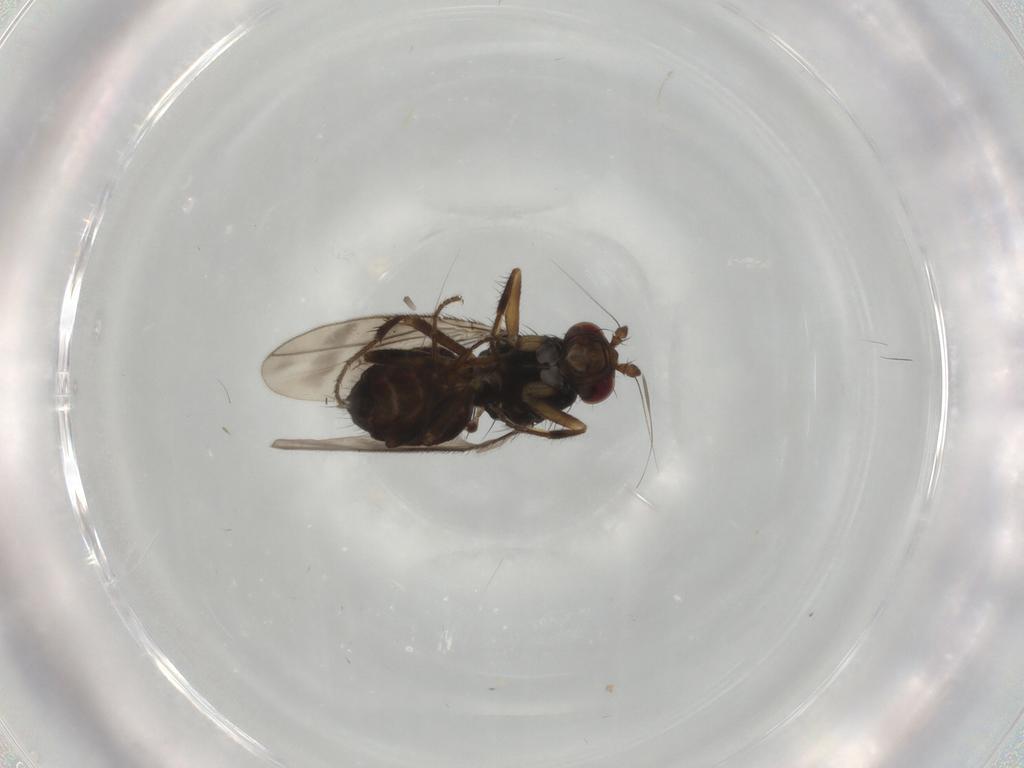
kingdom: Animalia
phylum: Arthropoda
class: Insecta
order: Diptera
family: Sphaeroceridae
